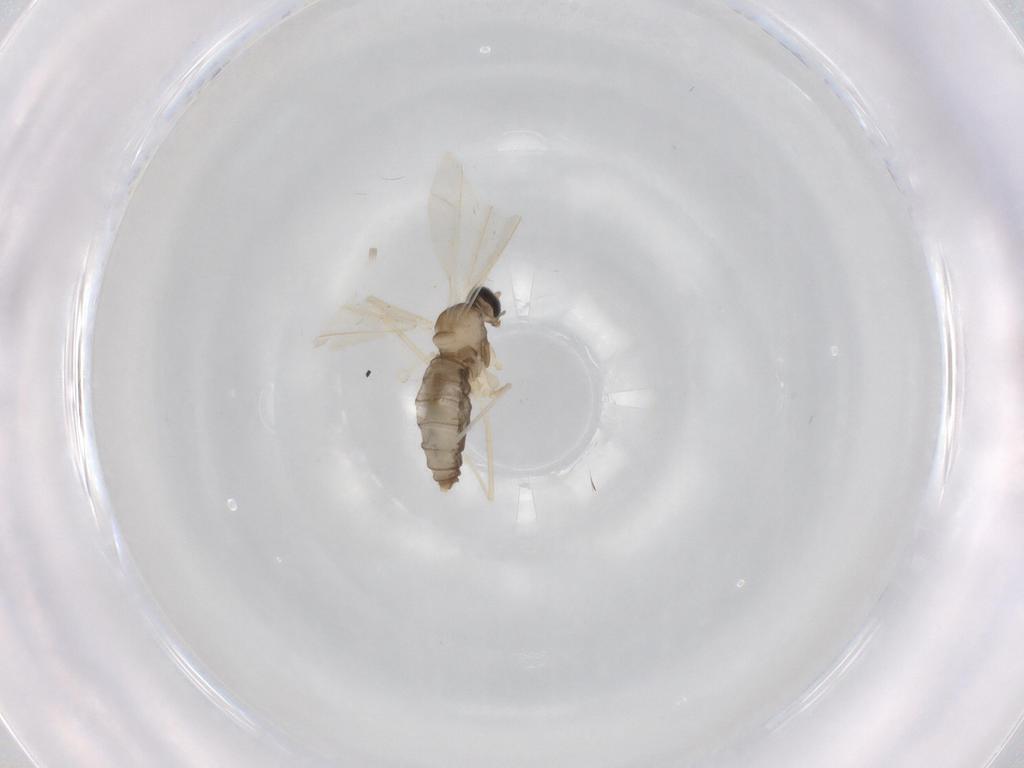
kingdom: Animalia
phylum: Arthropoda
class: Insecta
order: Diptera
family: Cecidomyiidae
